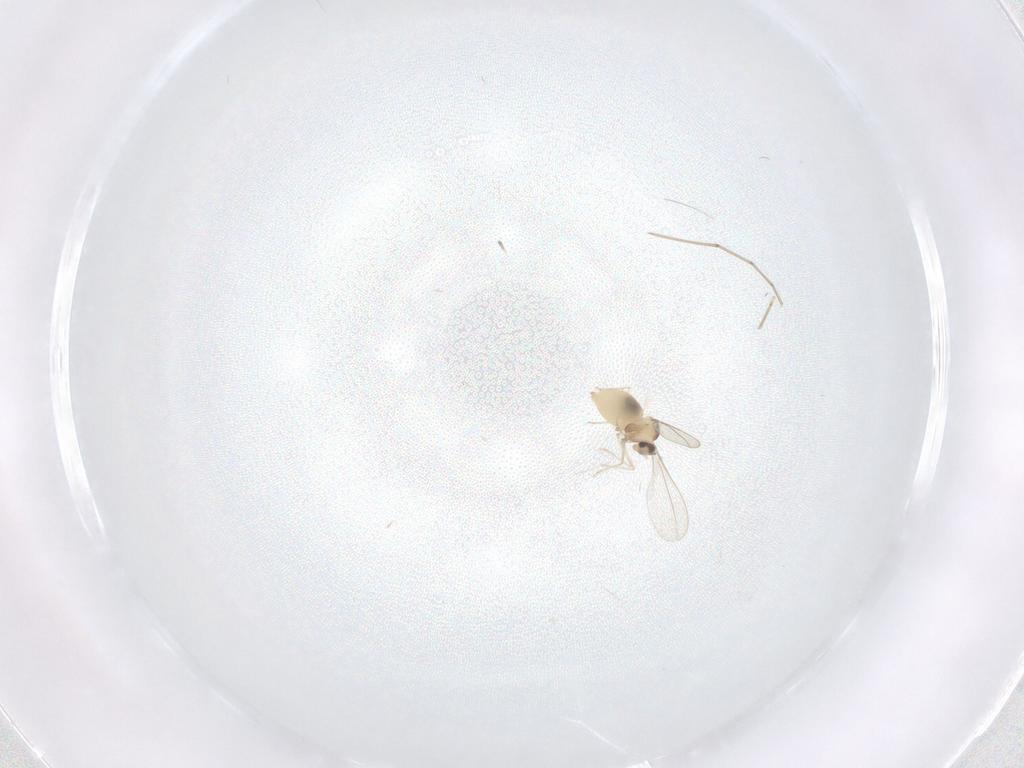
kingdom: Animalia
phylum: Arthropoda
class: Insecta
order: Diptera
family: Cecidomyiidae
